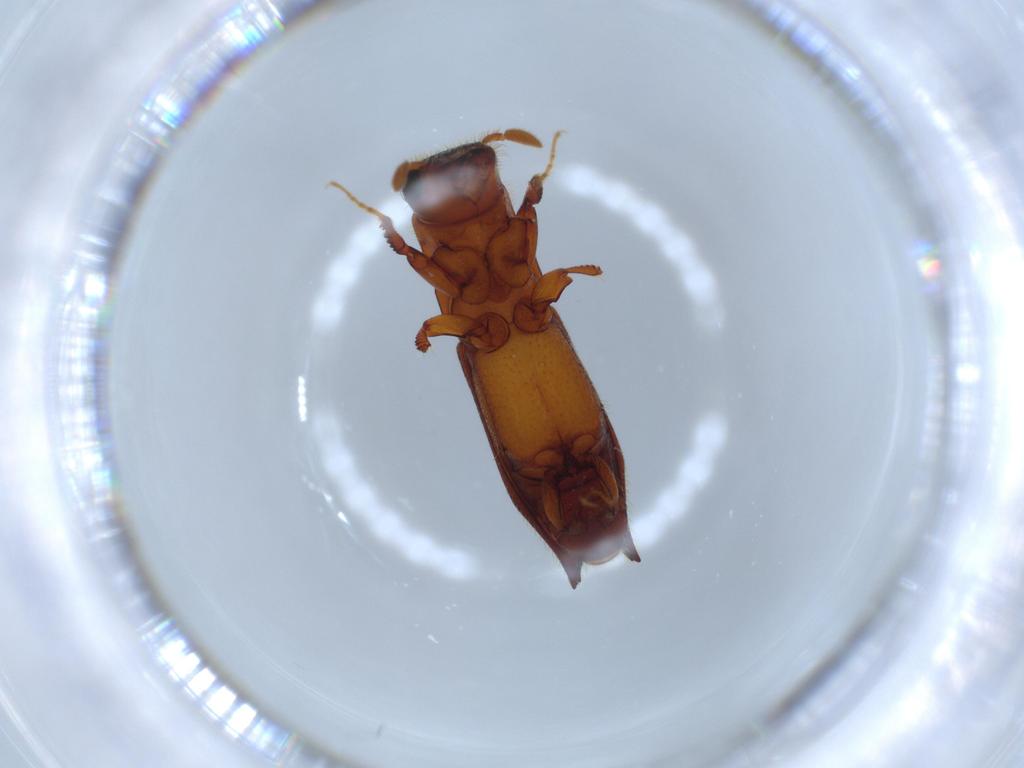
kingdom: Animalia
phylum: Arthropoda
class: Insecta
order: Coleoptera
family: Curculionidae
